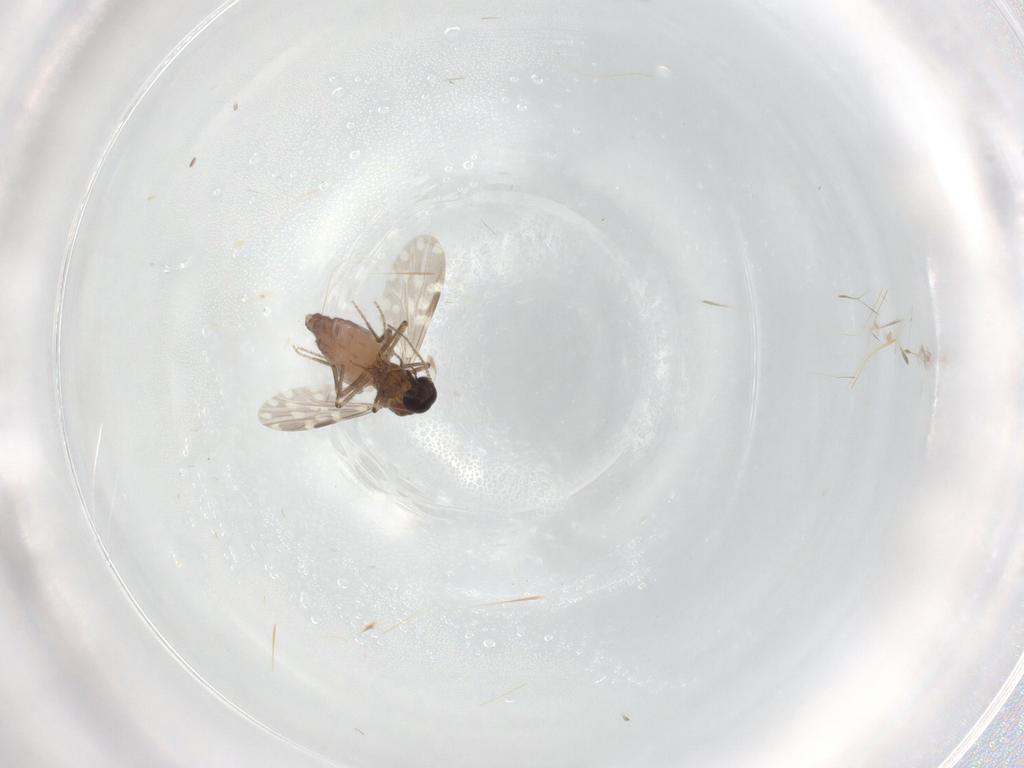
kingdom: Animalia
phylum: Arthropoda
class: Insecta
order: Diptera
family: Ceratopogonidae
